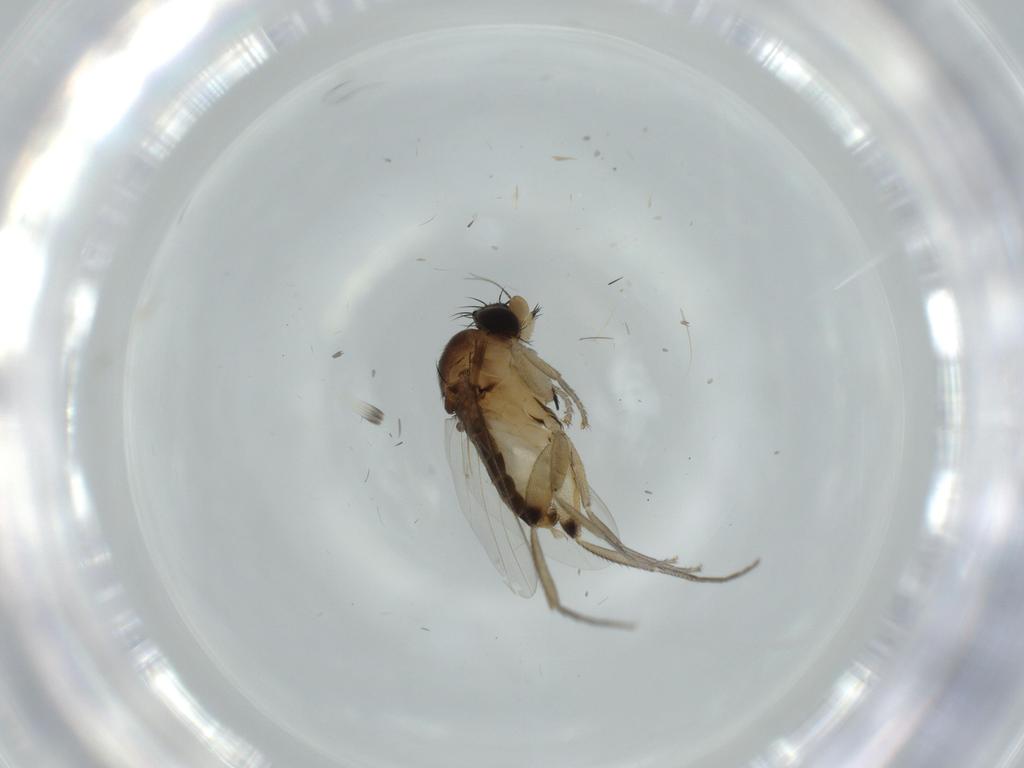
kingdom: Animalia
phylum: Arthropoda
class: Insecta
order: Diptera
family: Phoridae
